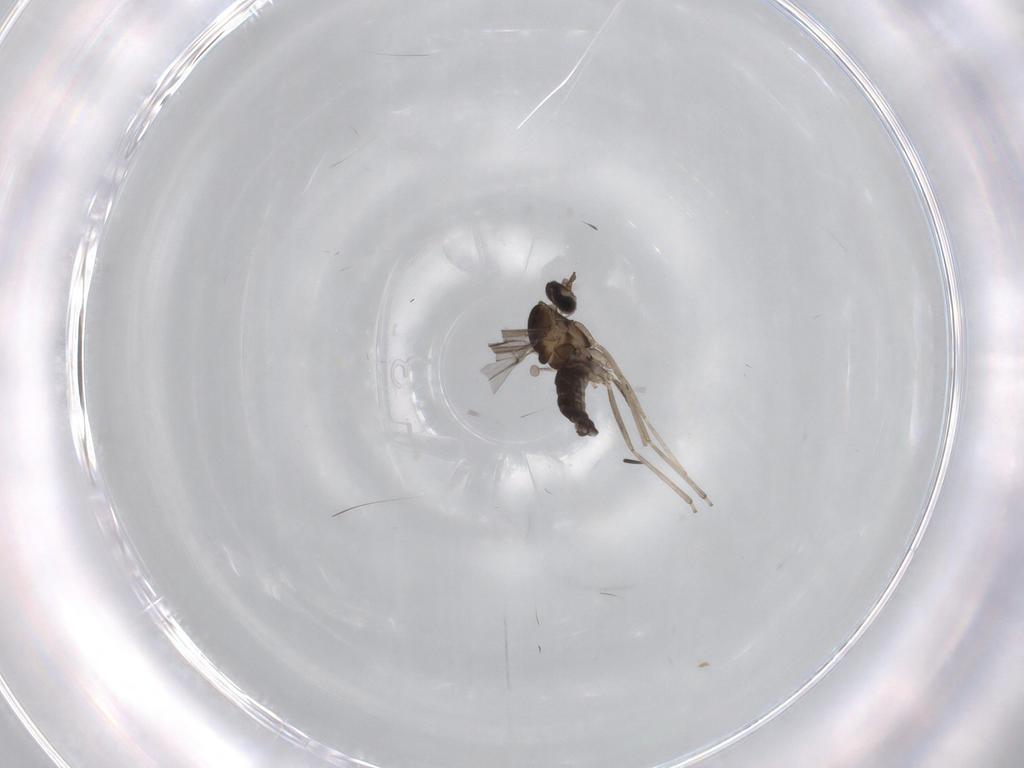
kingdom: Animalia
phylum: Arthropoda
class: Insecta
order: Diptera
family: Cecidomyiidae
